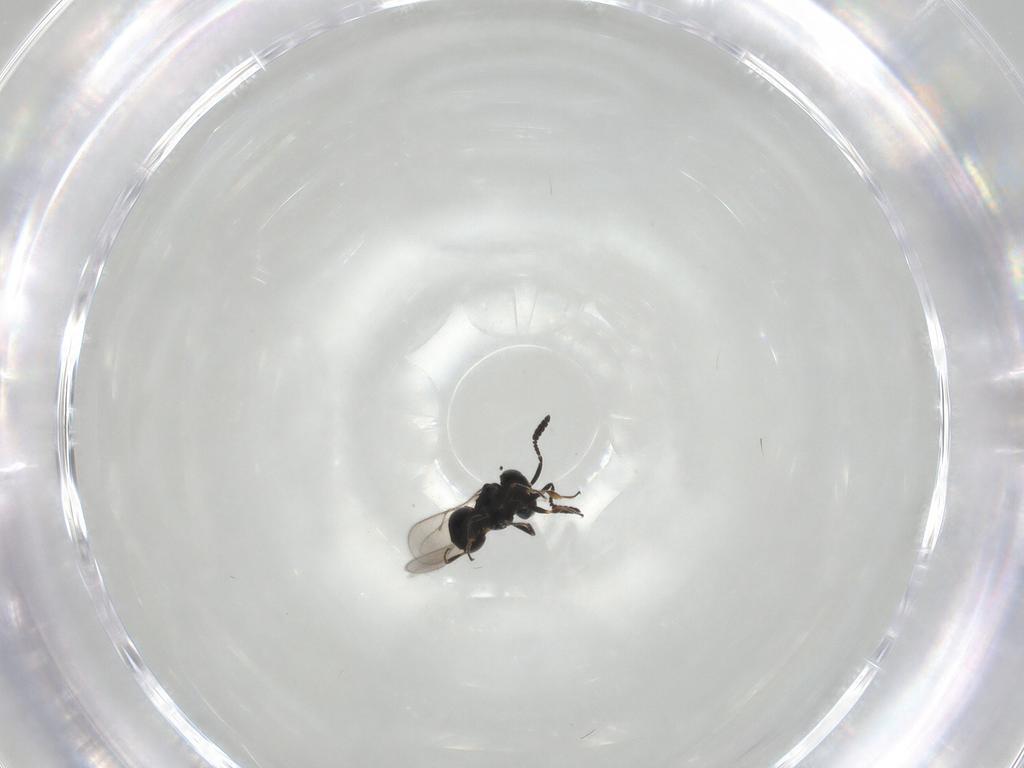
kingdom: Animalia
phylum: Arthropoda
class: Insecta
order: Hymenoptera
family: Scelionidae
